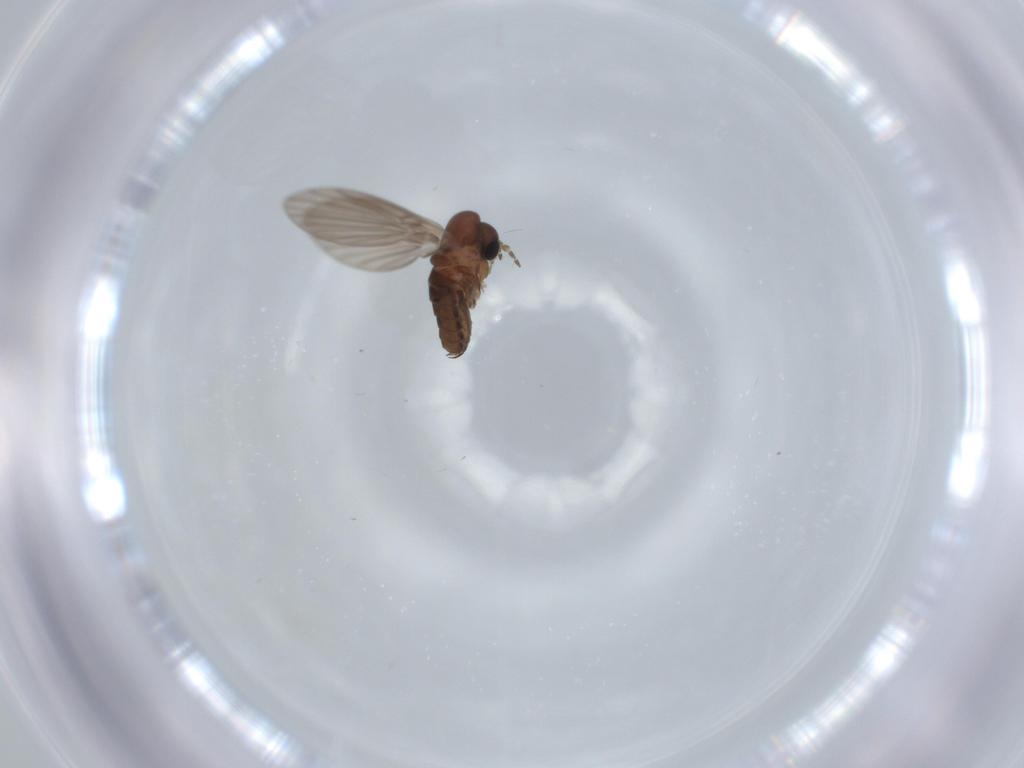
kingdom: Animalia
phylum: Arthropoda
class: Insecta
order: Diptera
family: Psychodidae
